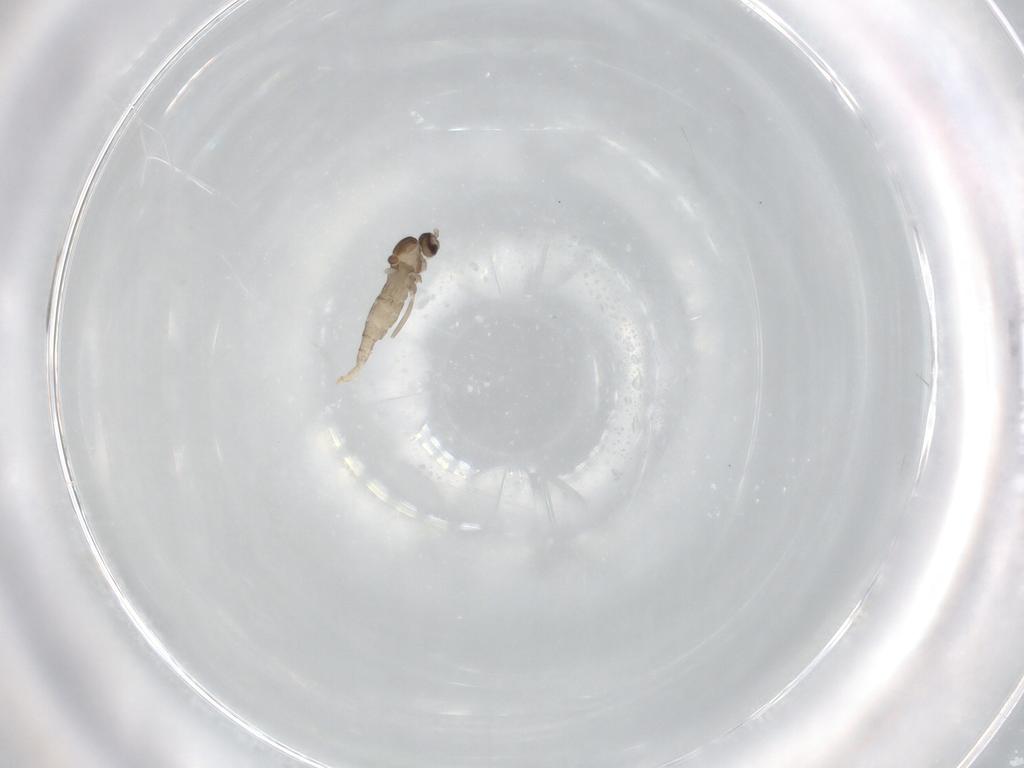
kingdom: Animalia
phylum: Arthropoda
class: Insecta
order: Diptera
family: Cecidomyiidae
